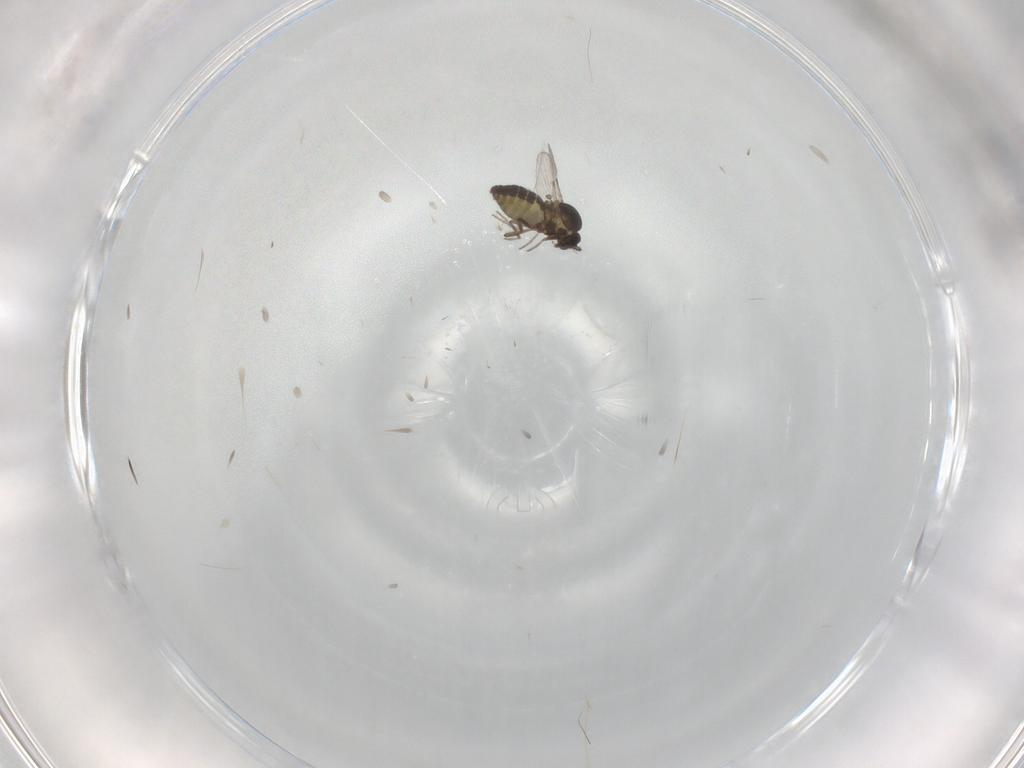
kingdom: Animalia
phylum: Arthropoda
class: Insecta
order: Diptera
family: Ceratopogonidae
